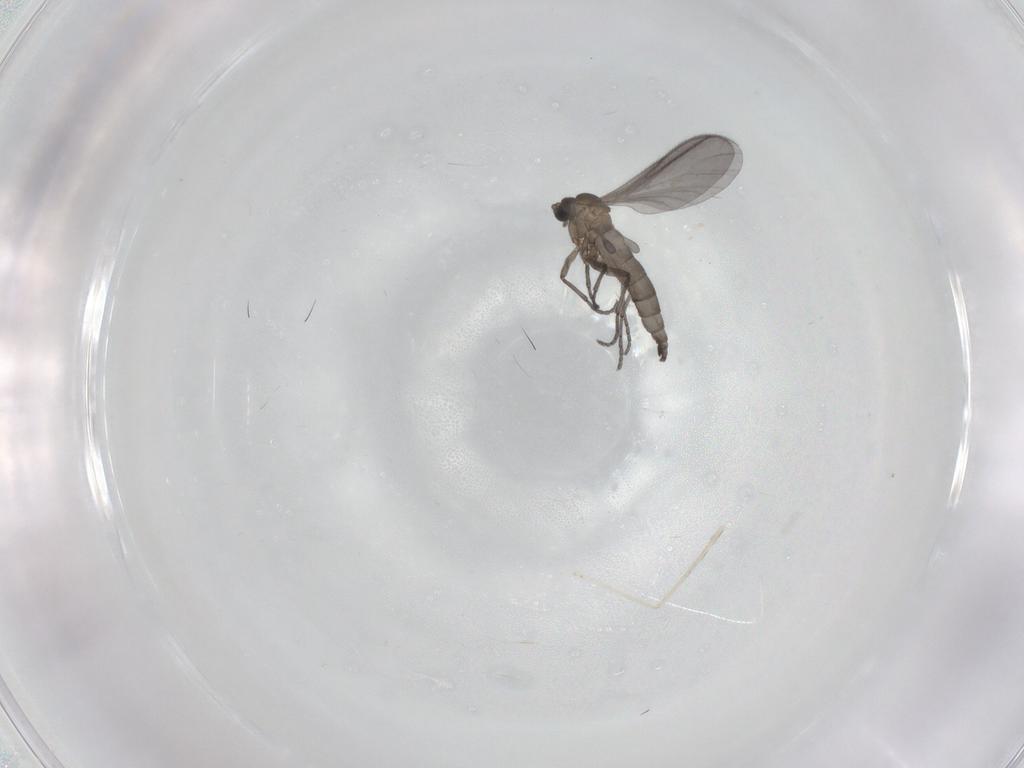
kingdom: Animalia
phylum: Arthropoda
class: Insecta
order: Diptera
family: Sciaridae
